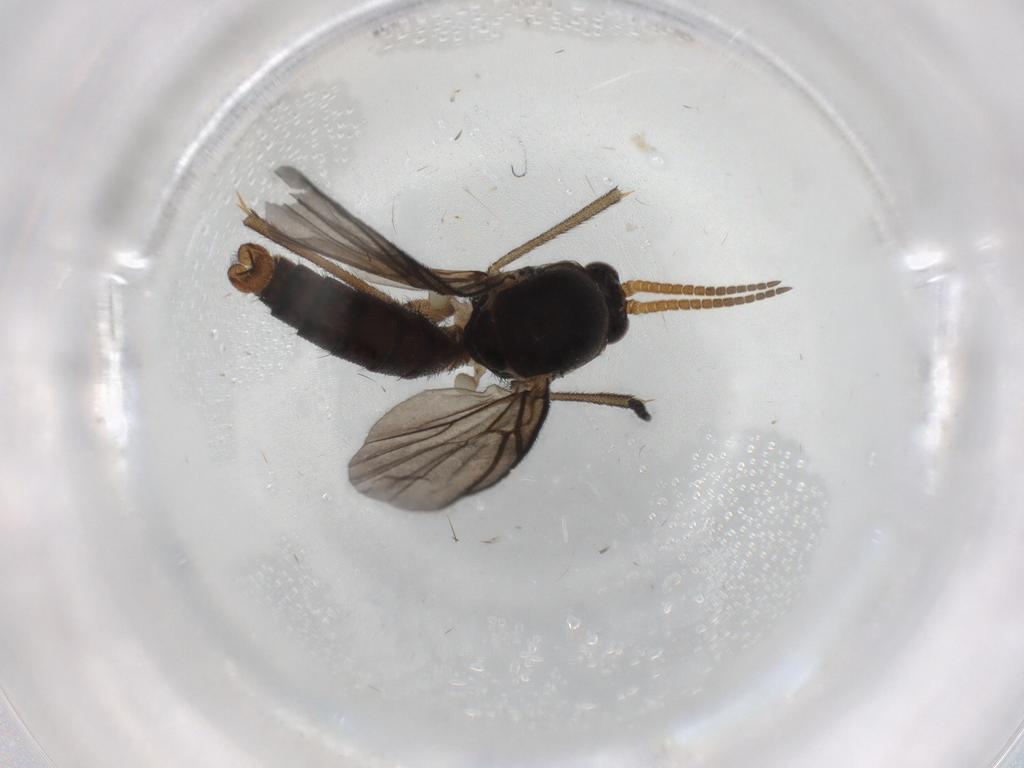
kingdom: Animalia
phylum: Arthropoda
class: Insecta
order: Diptera
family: Mycetophilidae
